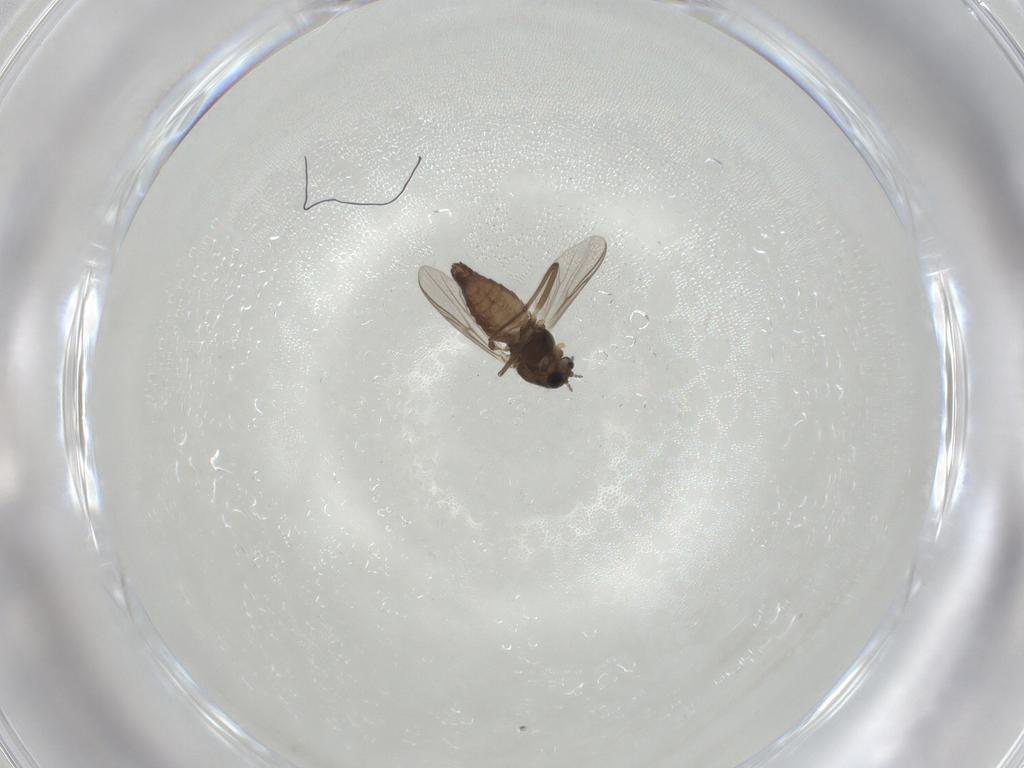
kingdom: Animalia
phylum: Arthropoda
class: Insecta
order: Diptera
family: Chironomidae
